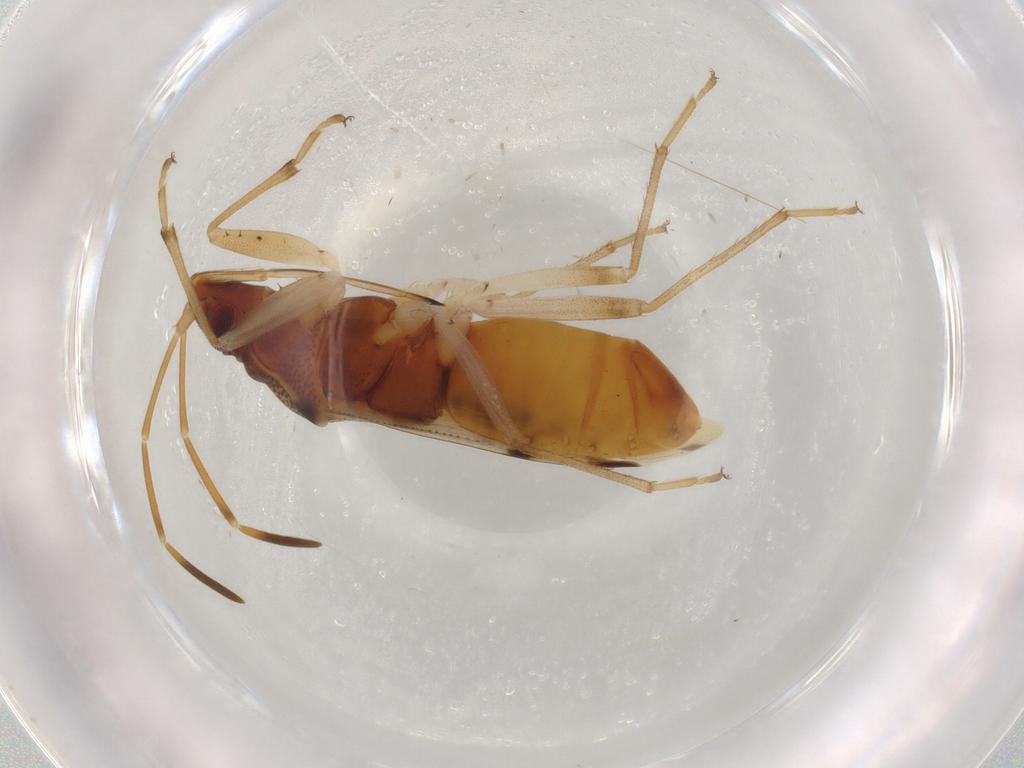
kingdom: Animalia
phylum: Arthropoda
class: Insecta
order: Hemiptera
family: Rhyparochromidae
